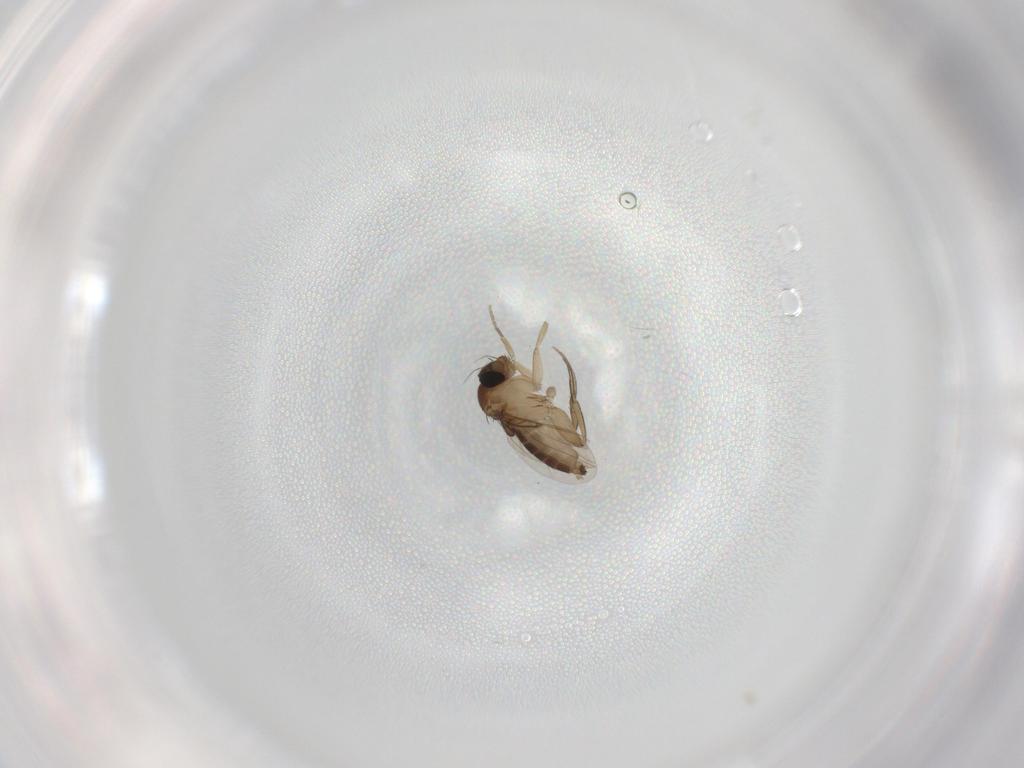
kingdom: Animalia
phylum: Arthropoda
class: Insecta
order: Diptera
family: Phoridae
